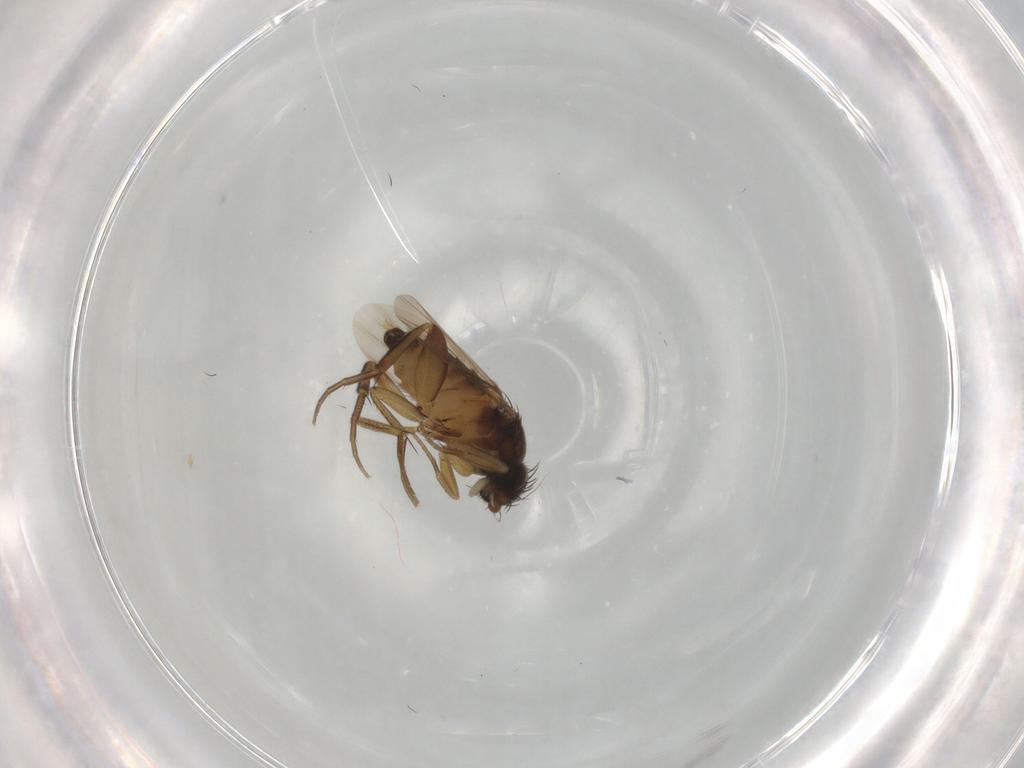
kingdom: Animalia
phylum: Arthropoda
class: Insecta
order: Diptera
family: Phoridae
